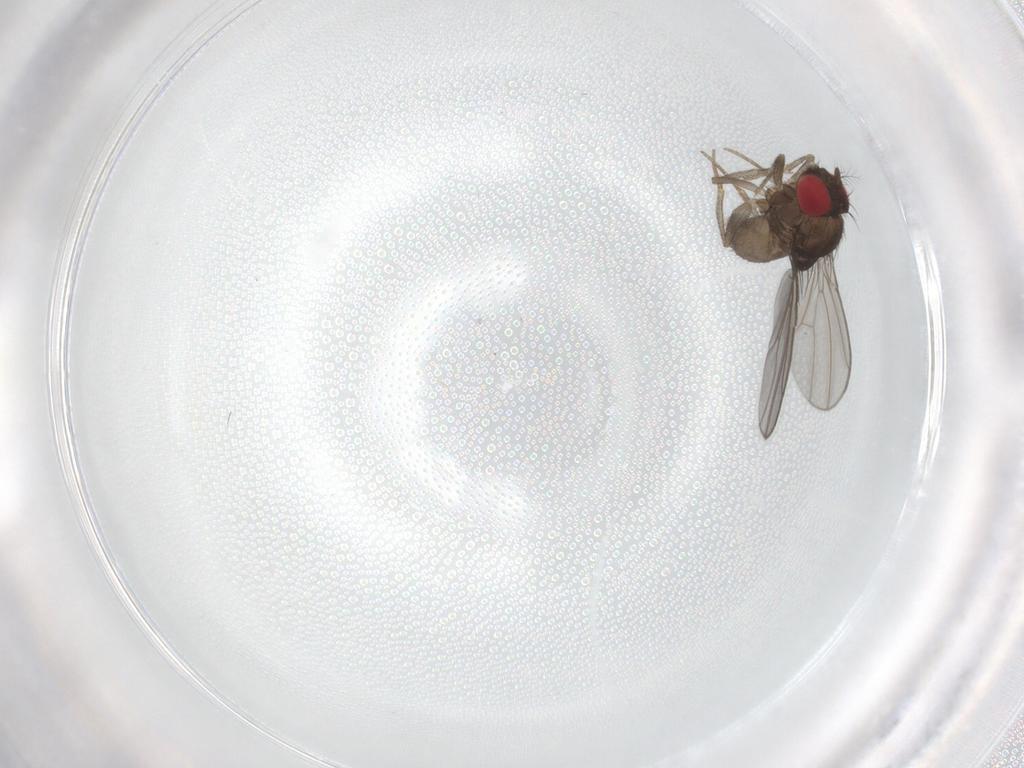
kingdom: Animalia
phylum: Arthropoda
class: Insecta
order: Diptera
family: Drosophilidae
